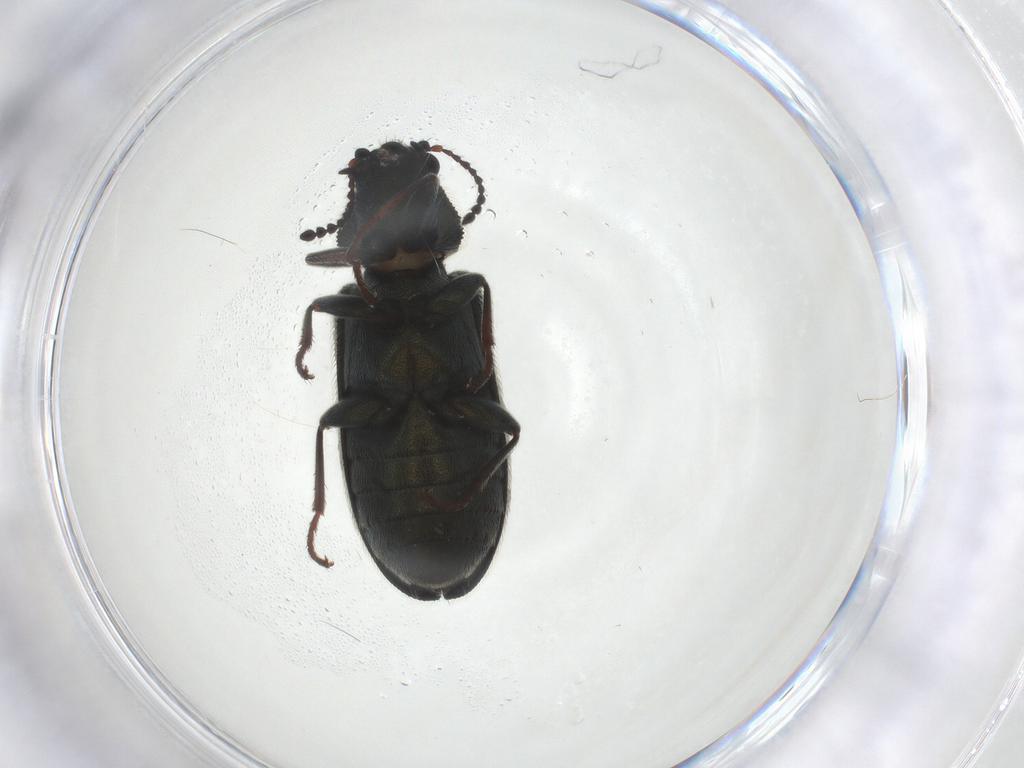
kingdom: Animalia
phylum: Arthropoda
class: Insecta
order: Coleoptera
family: Melyridae
